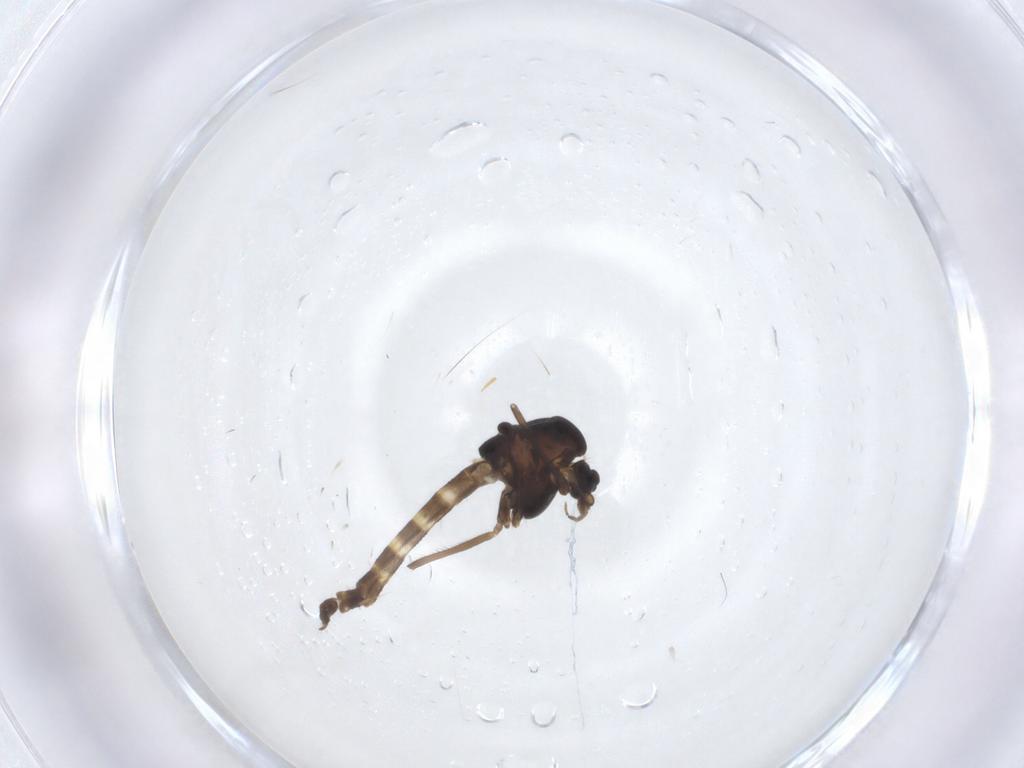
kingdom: Animalia
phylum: Arthropoda
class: Insecta
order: Diptera
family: Chironomidae
